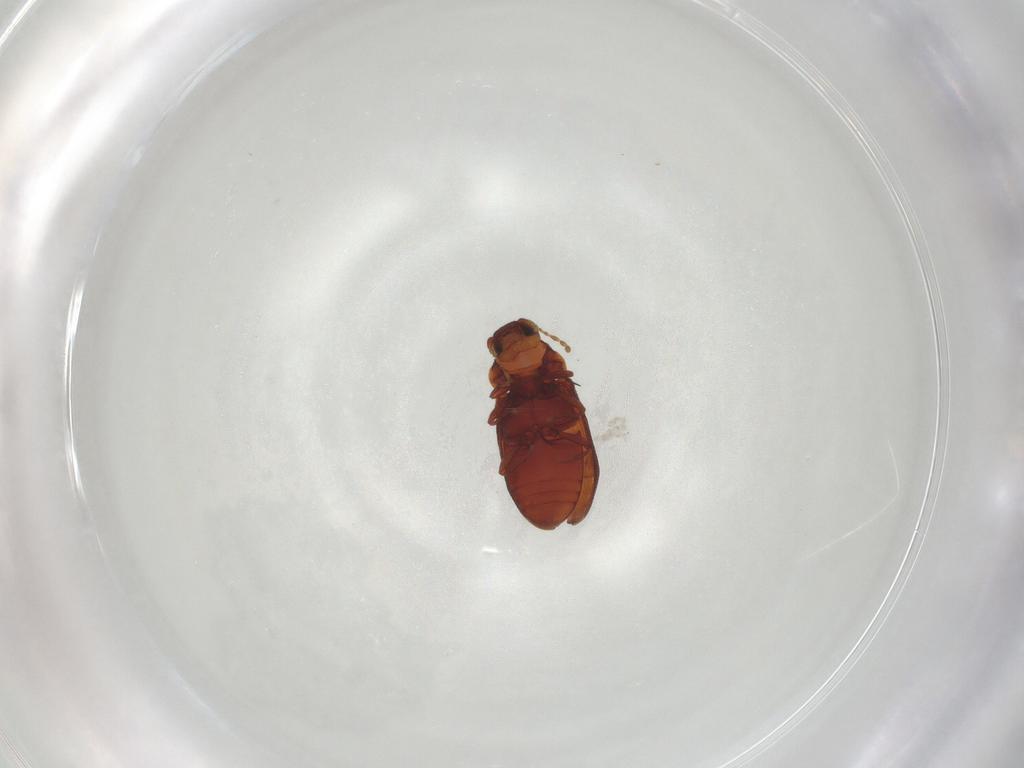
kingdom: Animalia
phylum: Arthropoda
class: Insecta
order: Coleoptera
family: Ptinidae
